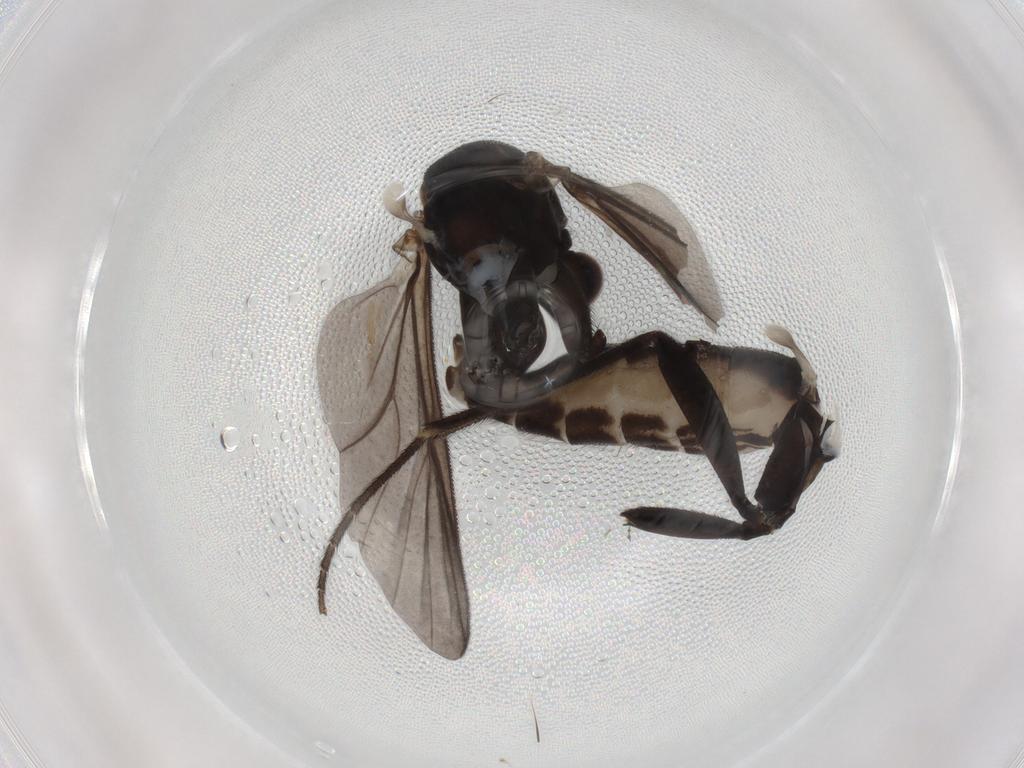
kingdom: Animalia
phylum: Arthropoda
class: Insecta
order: Diptera
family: Mycetophilidae
